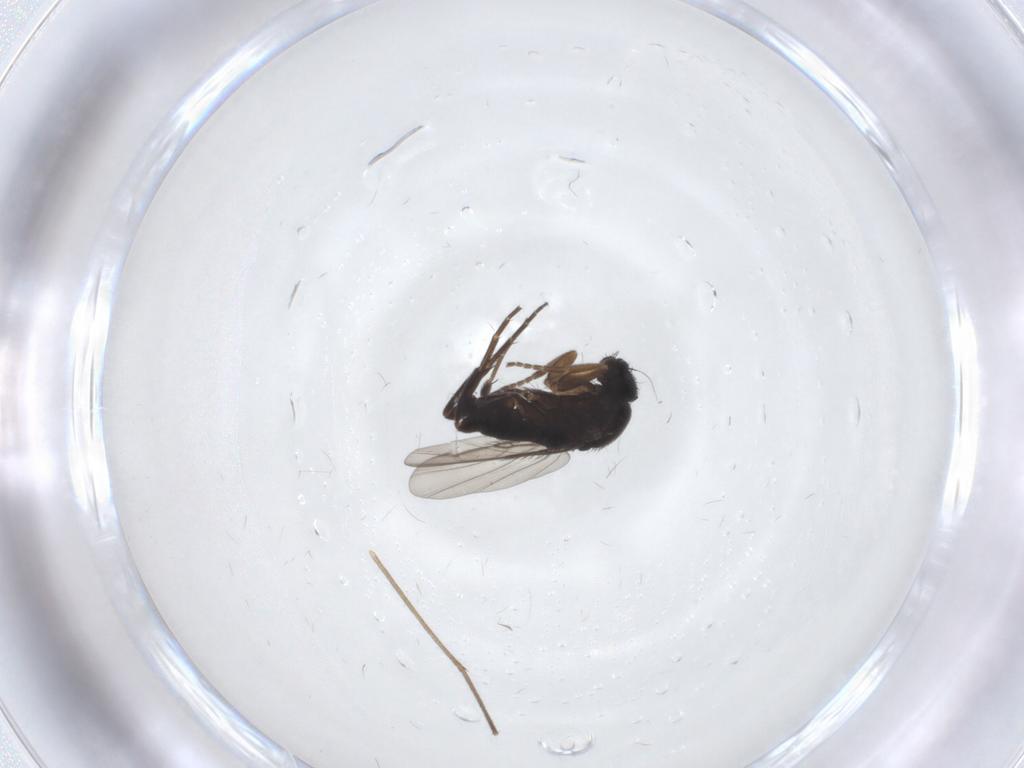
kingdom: Animalia
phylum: Arthropoda
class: Insecta
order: Diptera
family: Phoridae
